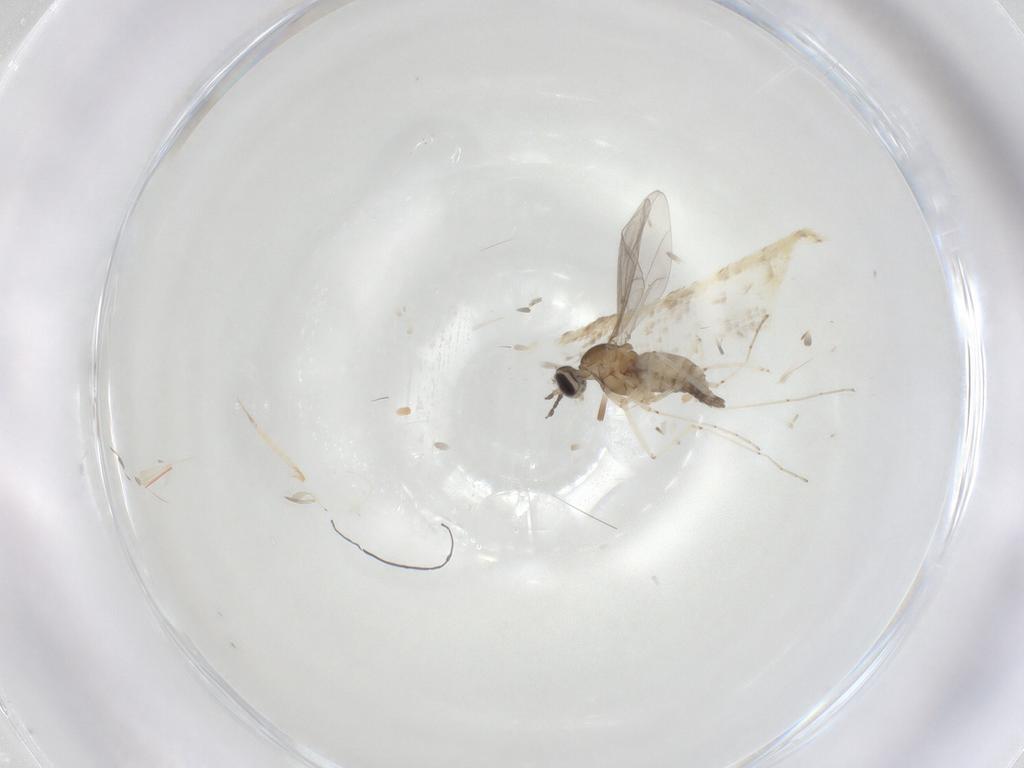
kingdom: Animalia
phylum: Arthropoda
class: Insecta
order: Diptera
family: Cecidomyiidae
